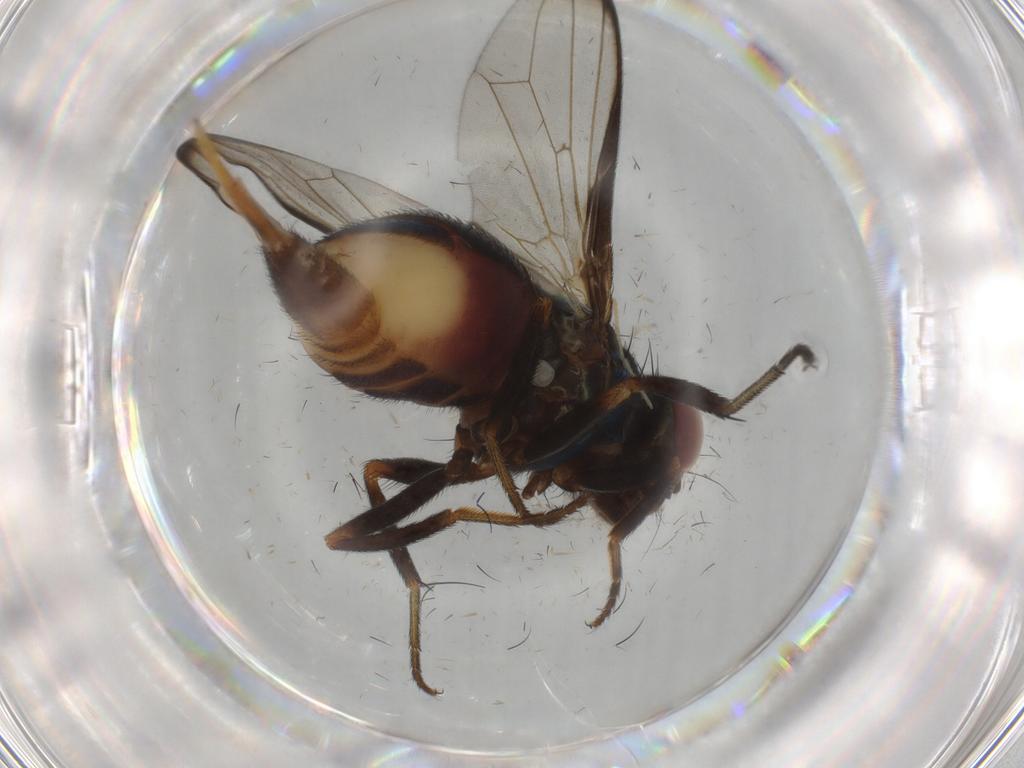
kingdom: Animalia
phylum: Arthropoda
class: Insecta
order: Diptera
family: Ulidiidae
